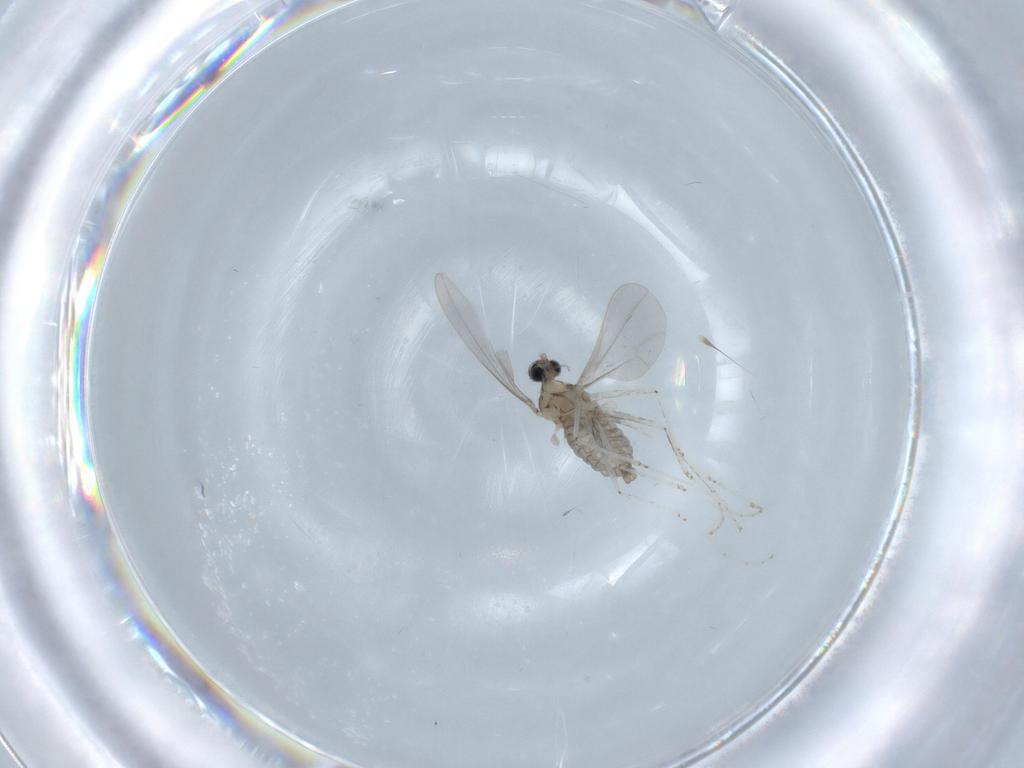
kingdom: Animalia
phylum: Arthropoda
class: Insecta
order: Diptera
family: Cecidomyiidae
